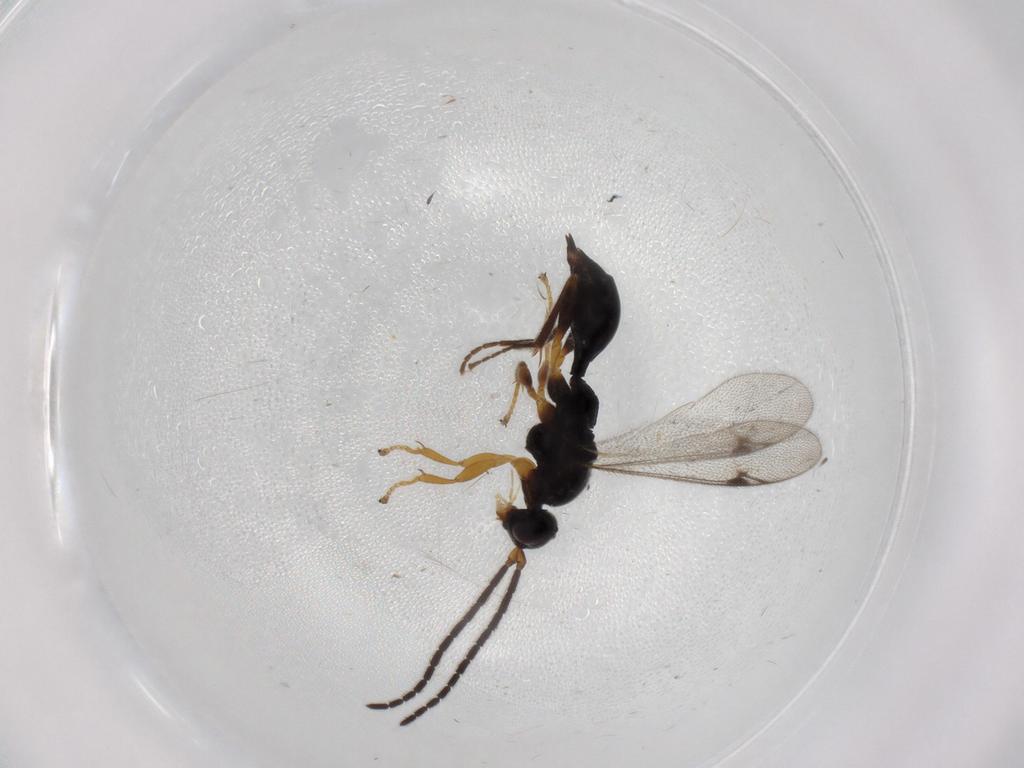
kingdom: Animalia
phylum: Arthropoda
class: Insecta
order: Hymenoptera
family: Proctotrupidae
